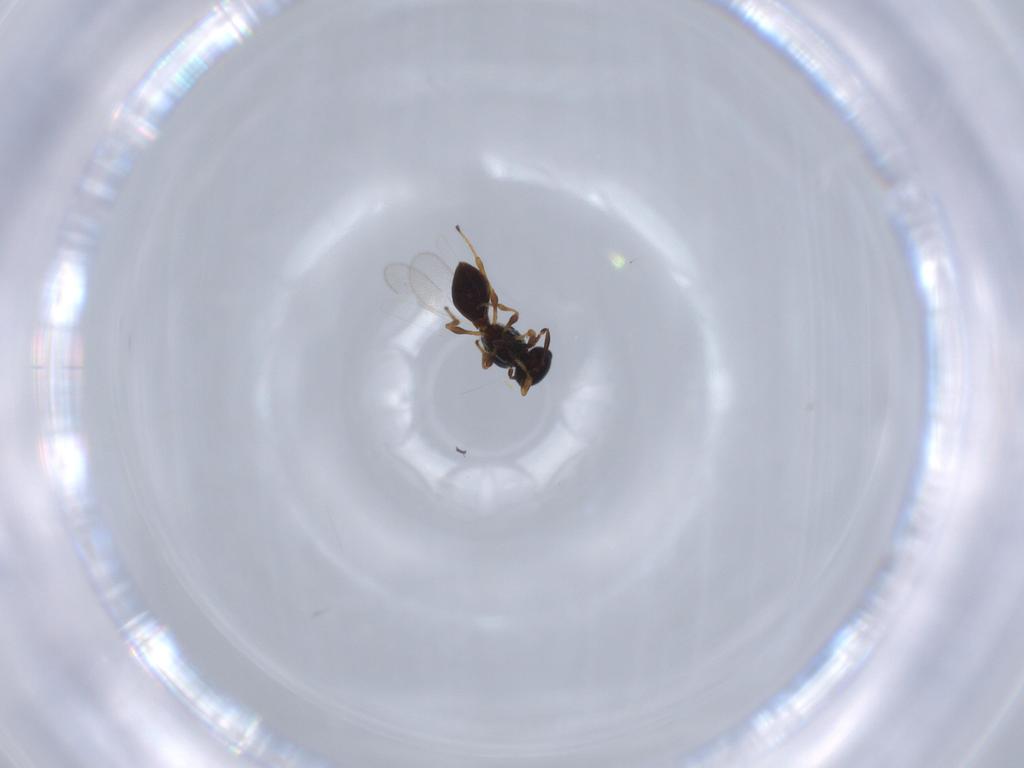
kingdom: Animalia
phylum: Arthropoda
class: Insecta
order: Hymenoptera
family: Platygastridae
